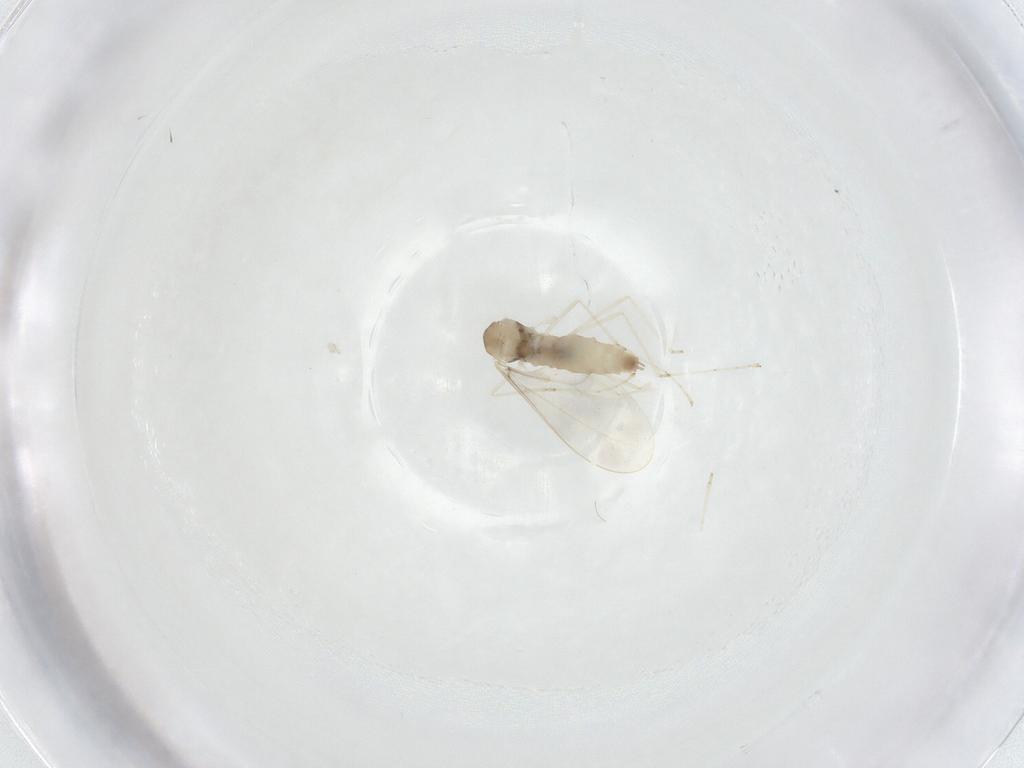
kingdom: Animalia
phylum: Arthropoda
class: Insecta
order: Diptera
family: Cecidomyiidae
